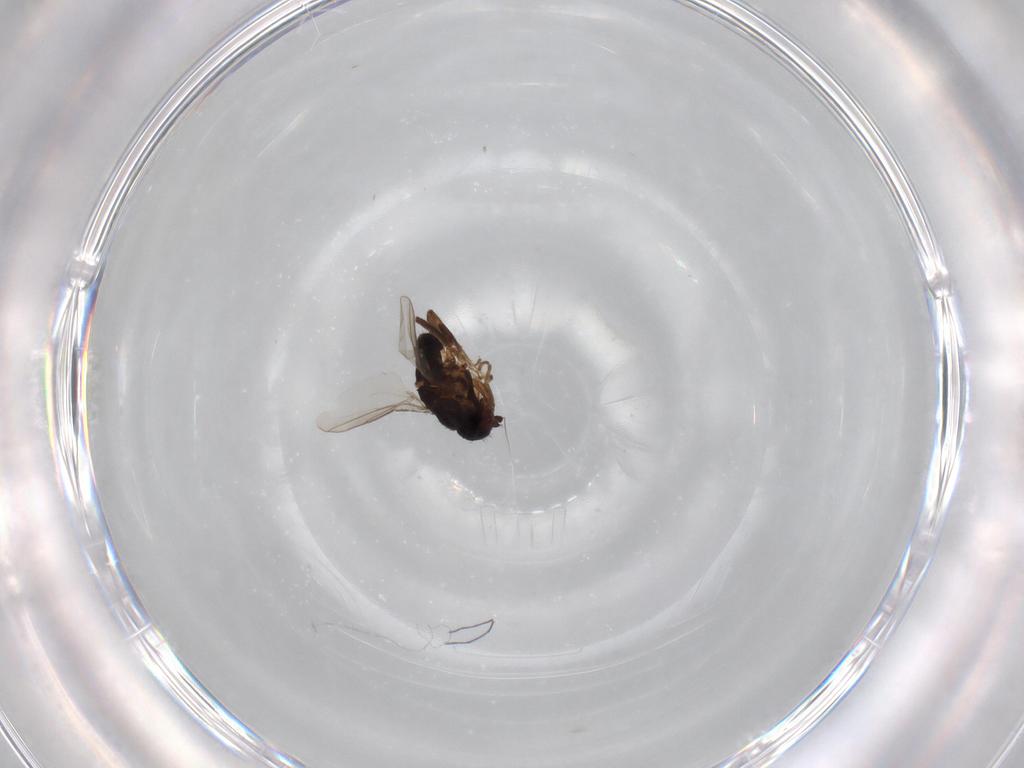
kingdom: Animalia
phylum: Arthropoda
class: Insecta
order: Diptera
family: Sphaeroceridae
